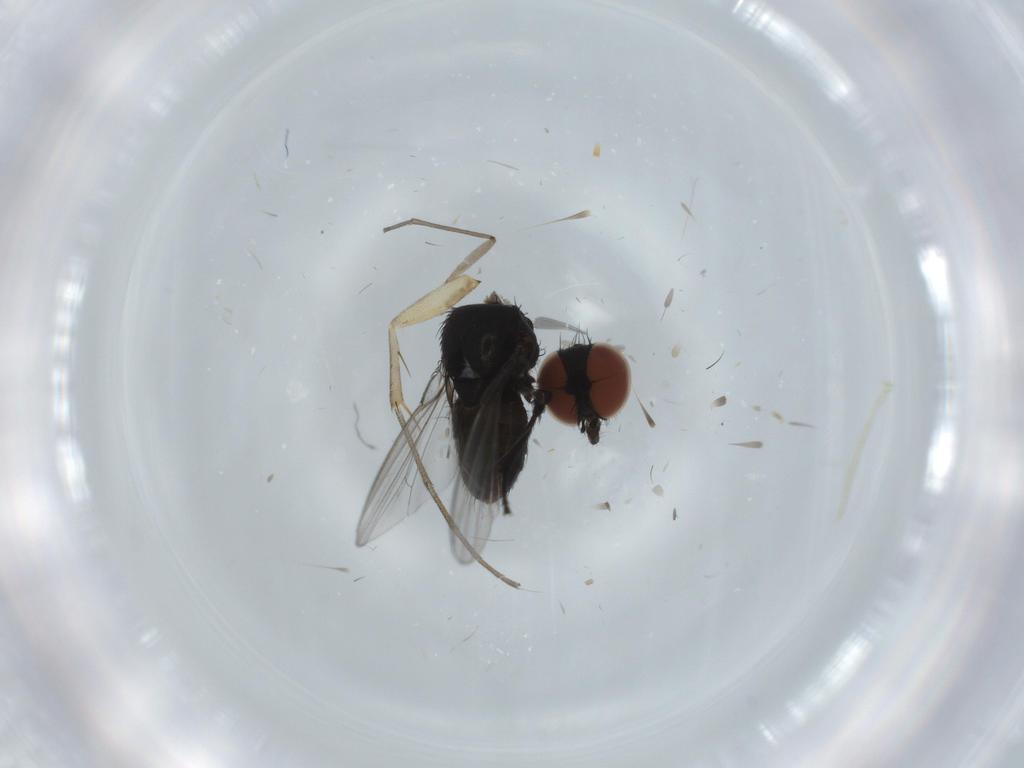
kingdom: Animalia
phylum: Arthropoda
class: Insecta
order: Diptera
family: Milichiidae
